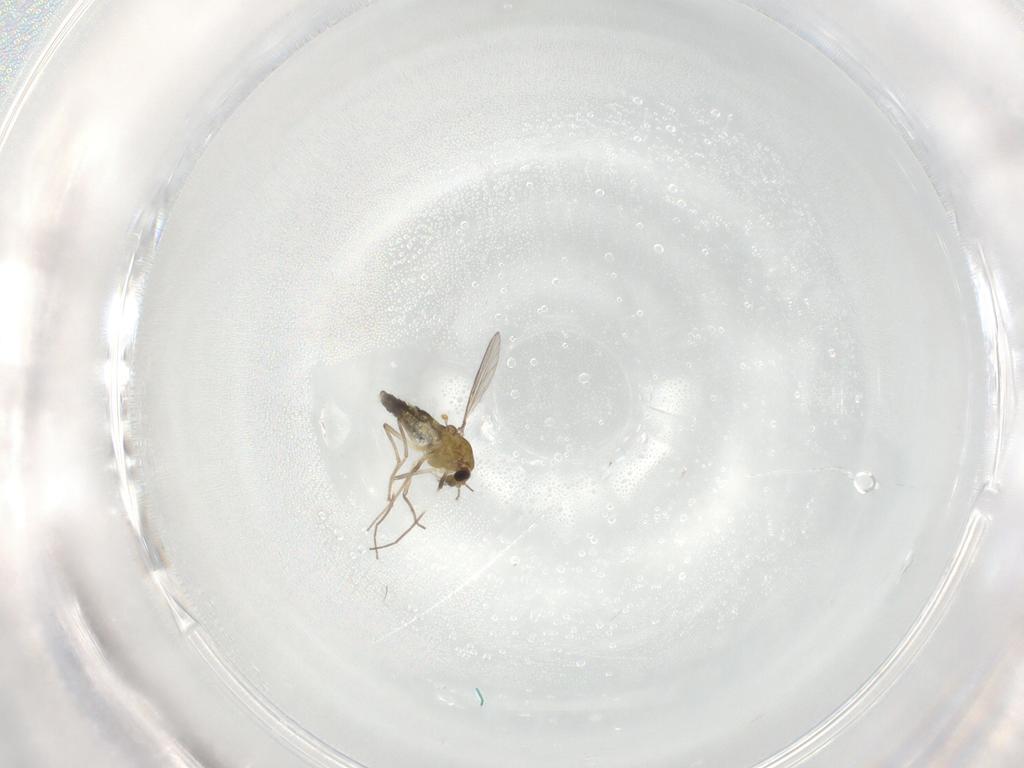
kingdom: Animalia
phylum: Arthropoda
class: Insecta
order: Diptera
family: Chironomidae
